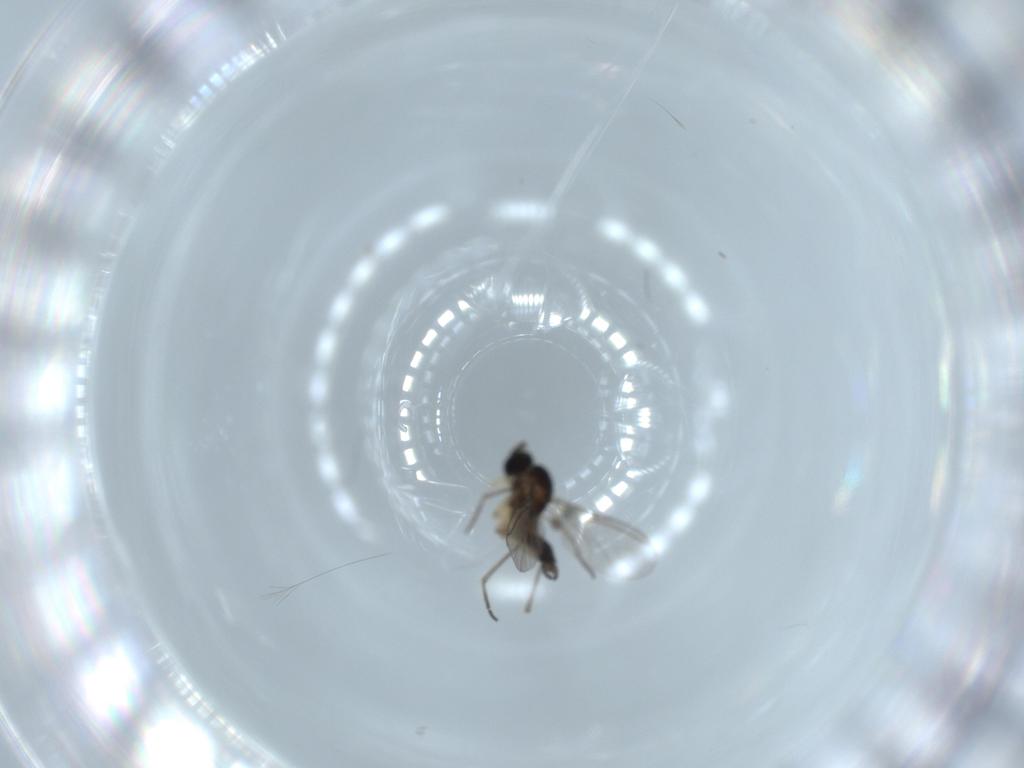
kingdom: Animalia
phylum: Arthropoda
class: Insecta
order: Diptera
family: Sciaridae
